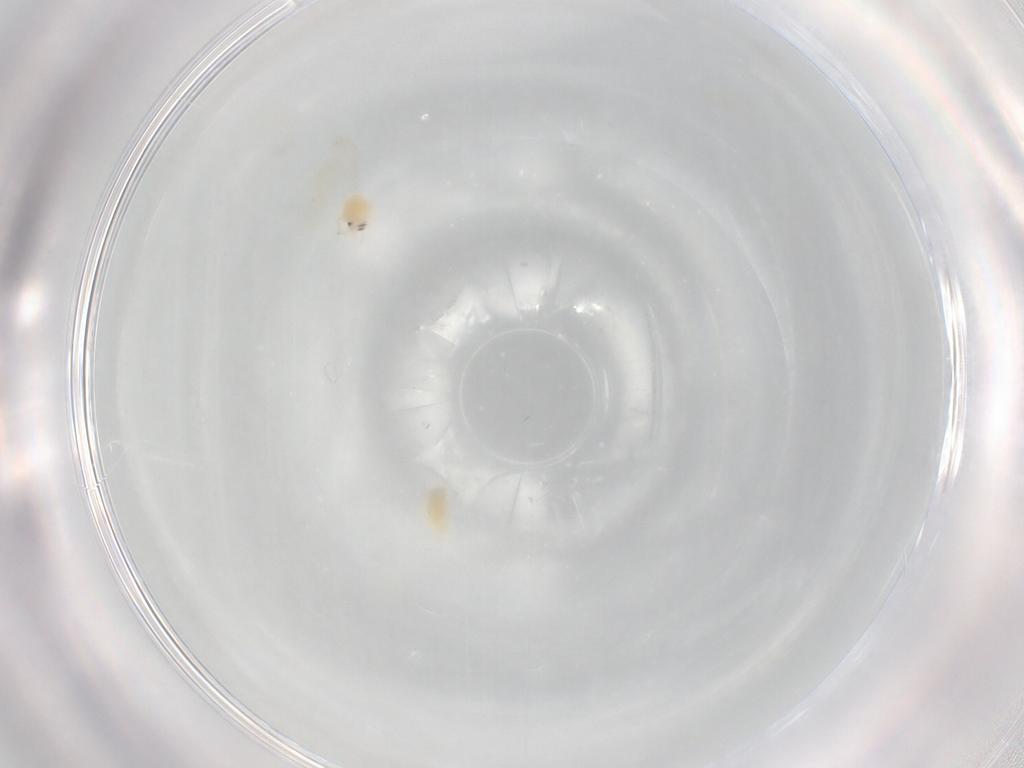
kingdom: Animalia
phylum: Arthropoda
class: Insecta
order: Hemiptera
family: Aleyrodidae
